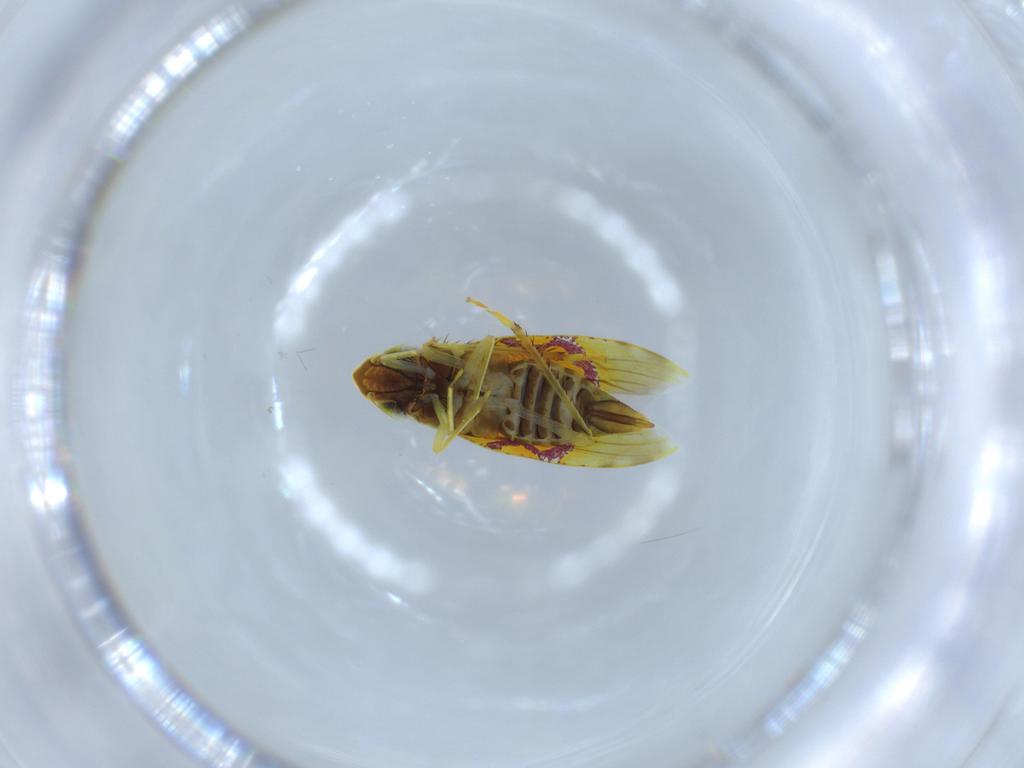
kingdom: Animalia
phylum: Arthropoda
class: Insecta
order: Hemiptera
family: Cicadellidae
